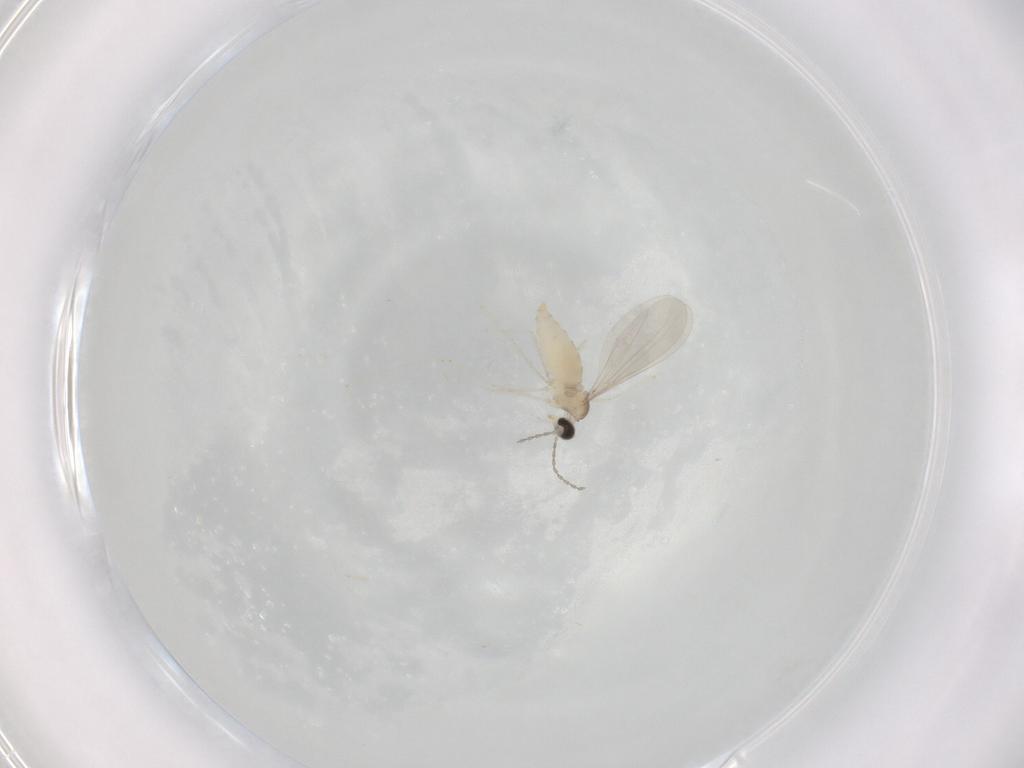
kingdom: Animalia
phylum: Arthropoda
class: Insecta
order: Diptera
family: Cecidomyiidae
